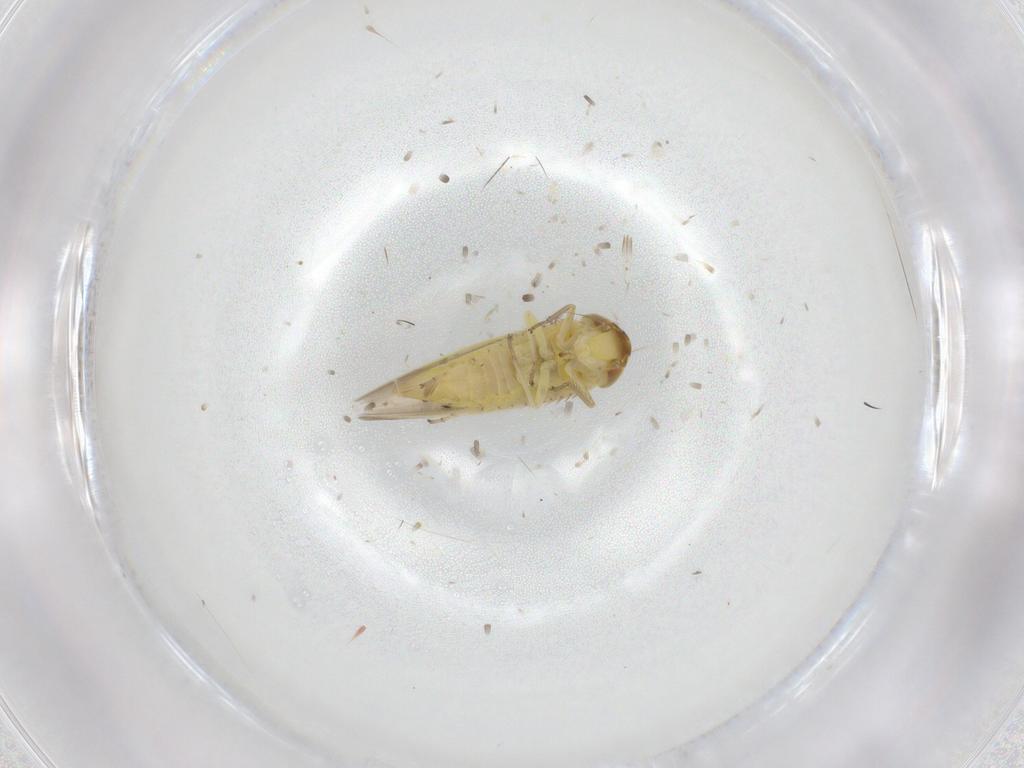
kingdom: Animalia
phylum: Arthropoda
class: Insecta
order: Hemiptera
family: Cicadellidae
